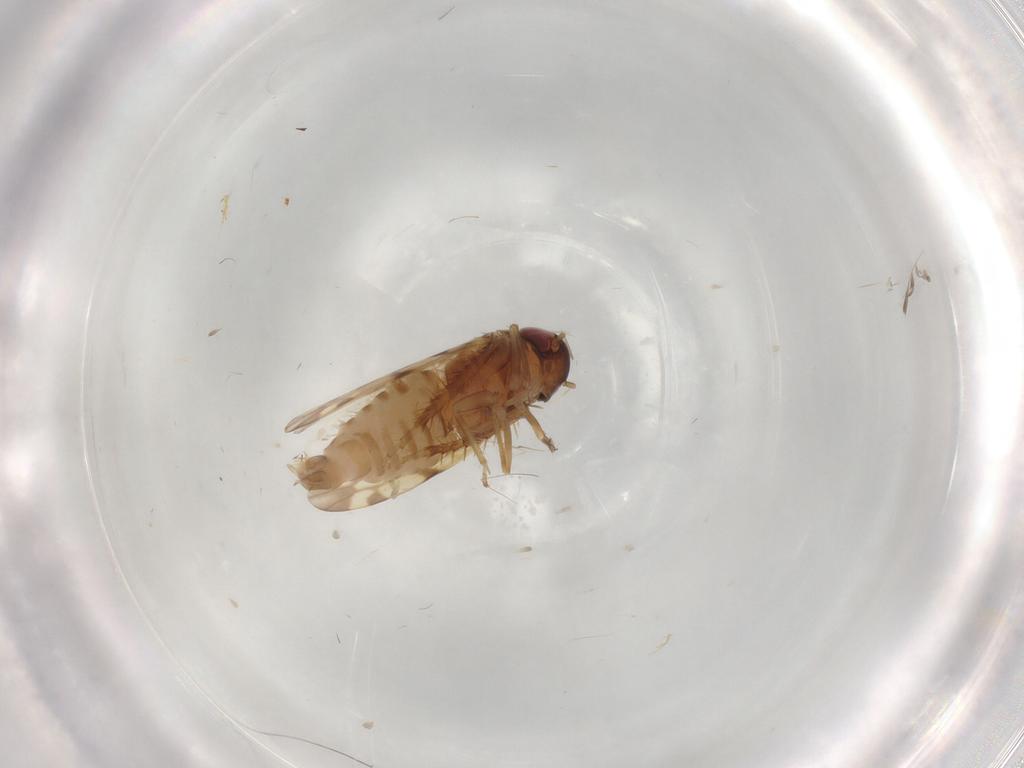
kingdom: Animalia
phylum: Arthropoda
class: Insecta
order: Hemiptera
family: Cicadellidae
